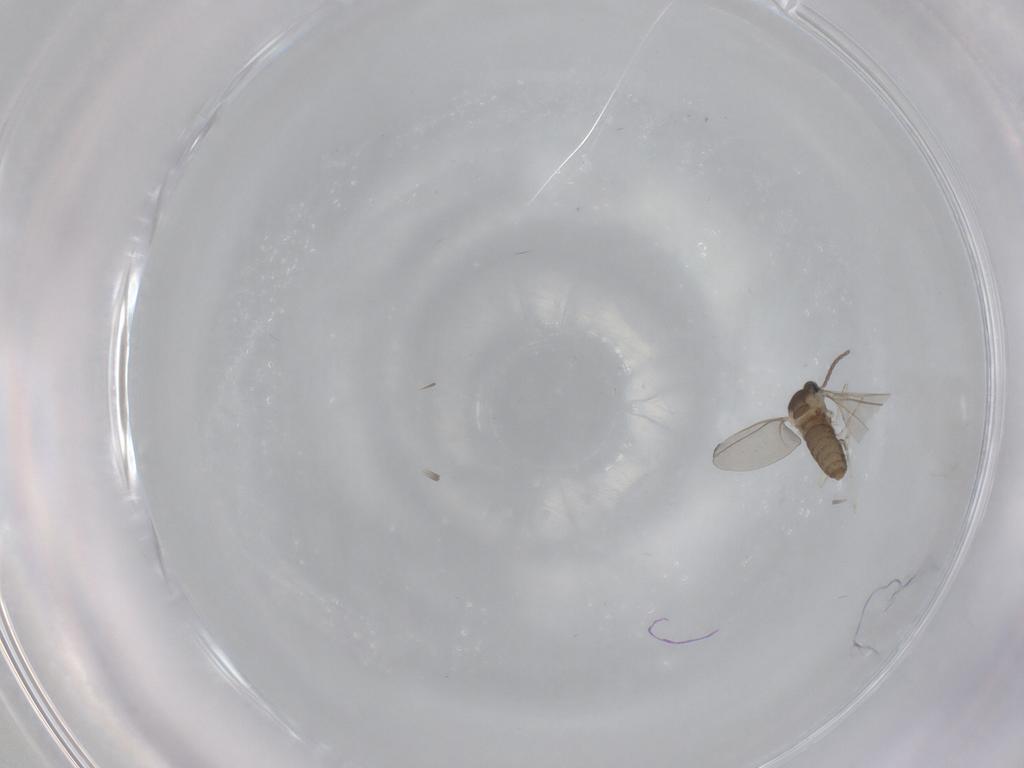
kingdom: Animalia
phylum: Arthropoda
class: Insecta
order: Diptera
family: Cecidomyiidae
